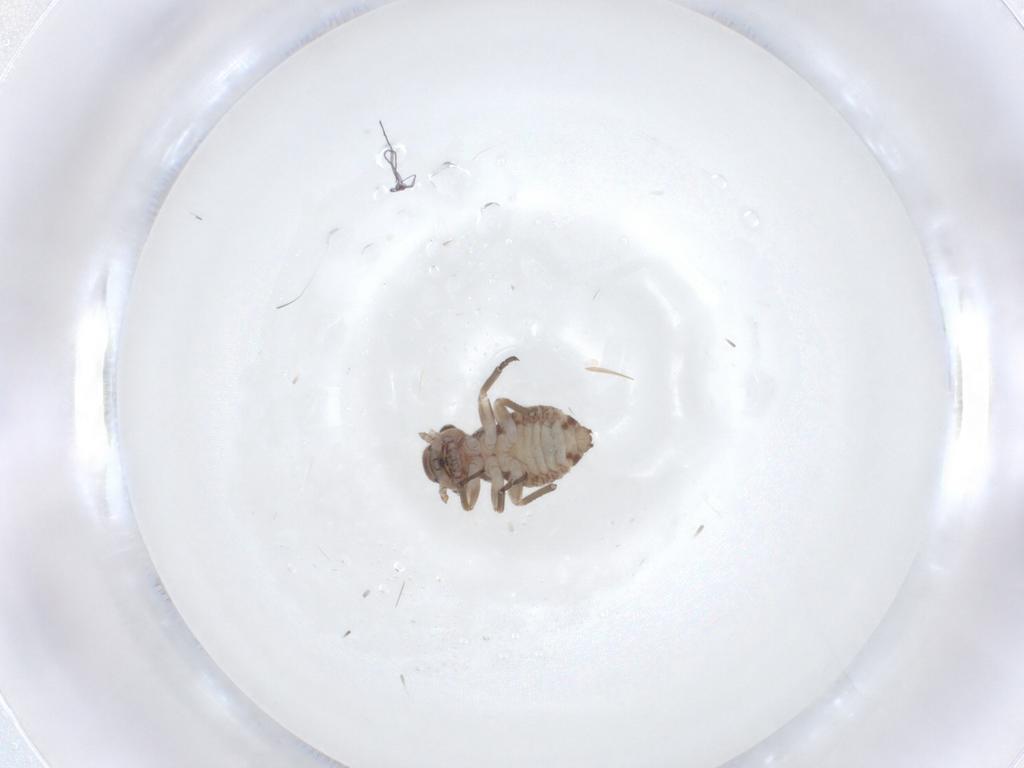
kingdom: Animalia
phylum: Arthropoda
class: Insecta
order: Psocodea
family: Psocidae
